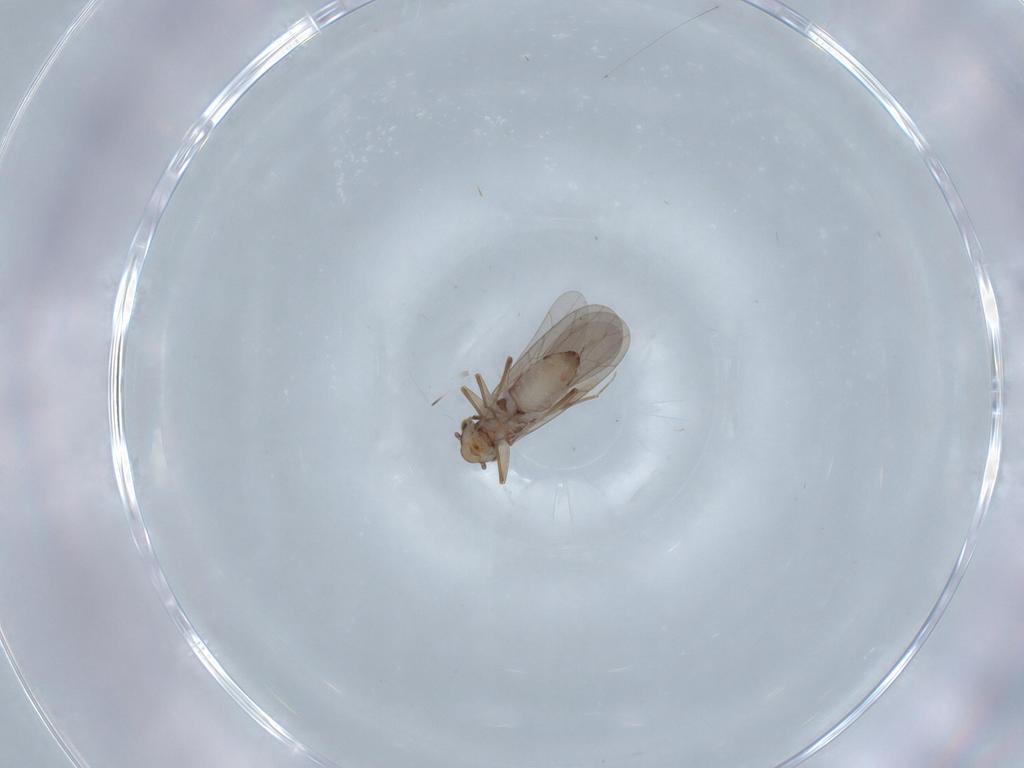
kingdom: Animalia
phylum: Arthropoda
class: Insecta
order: Psocodea
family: Lepidopsocidae
